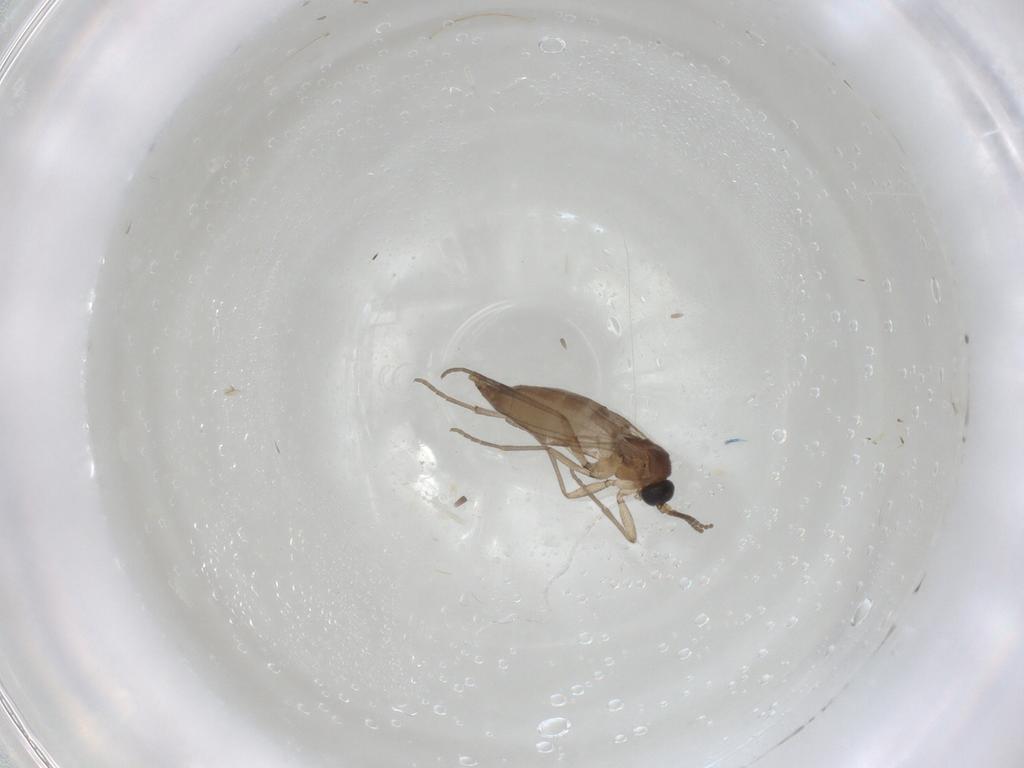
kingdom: Animalia
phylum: Arthropoda
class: Insecta
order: Diptera
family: Sciaridae
